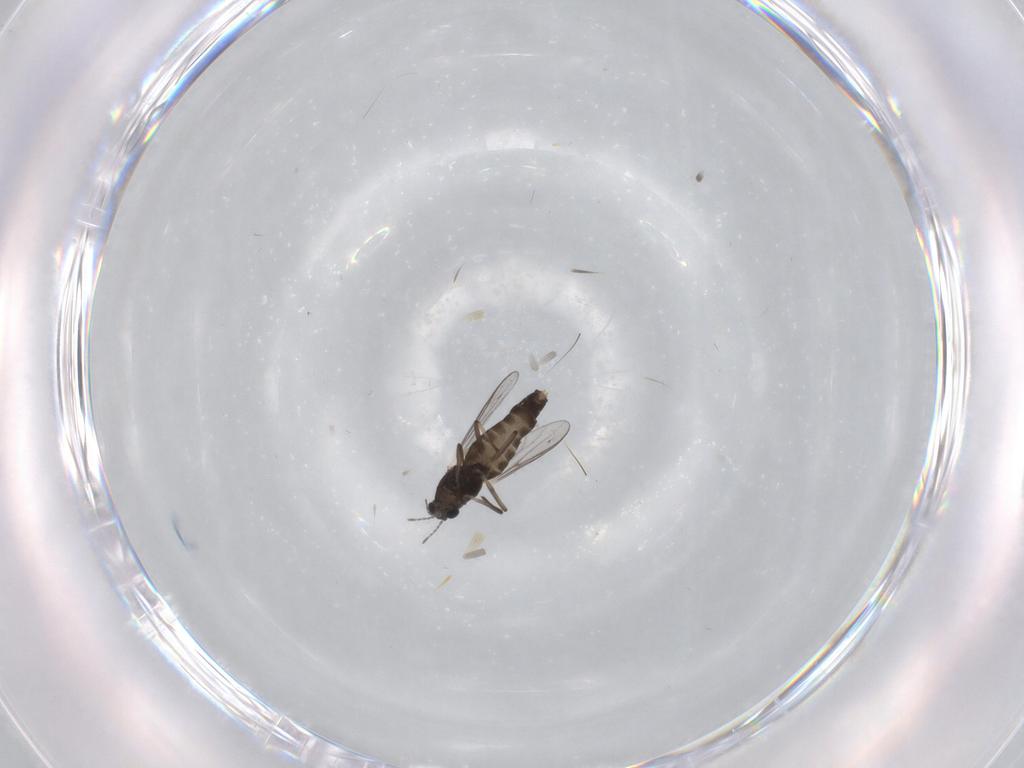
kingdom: Animalia
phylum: Arthropoda
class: Insecta
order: Diptera
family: Chironomidae
